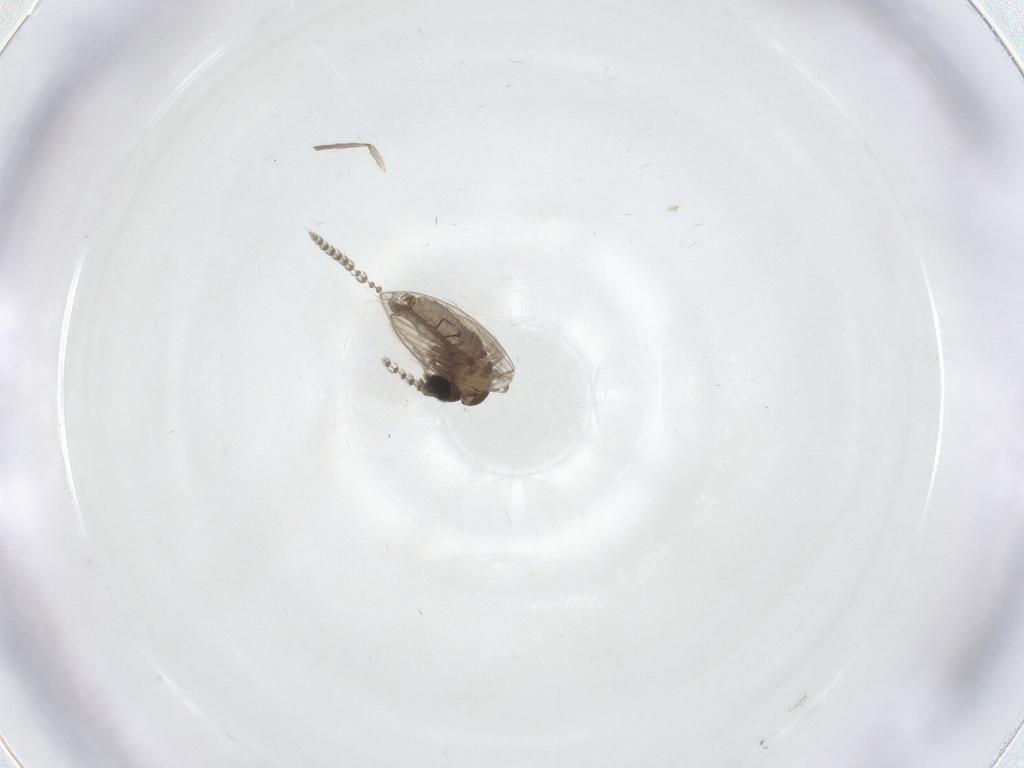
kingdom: Animalia
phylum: Arthropoda
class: Insecta
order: Diptera
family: Psychodidae
